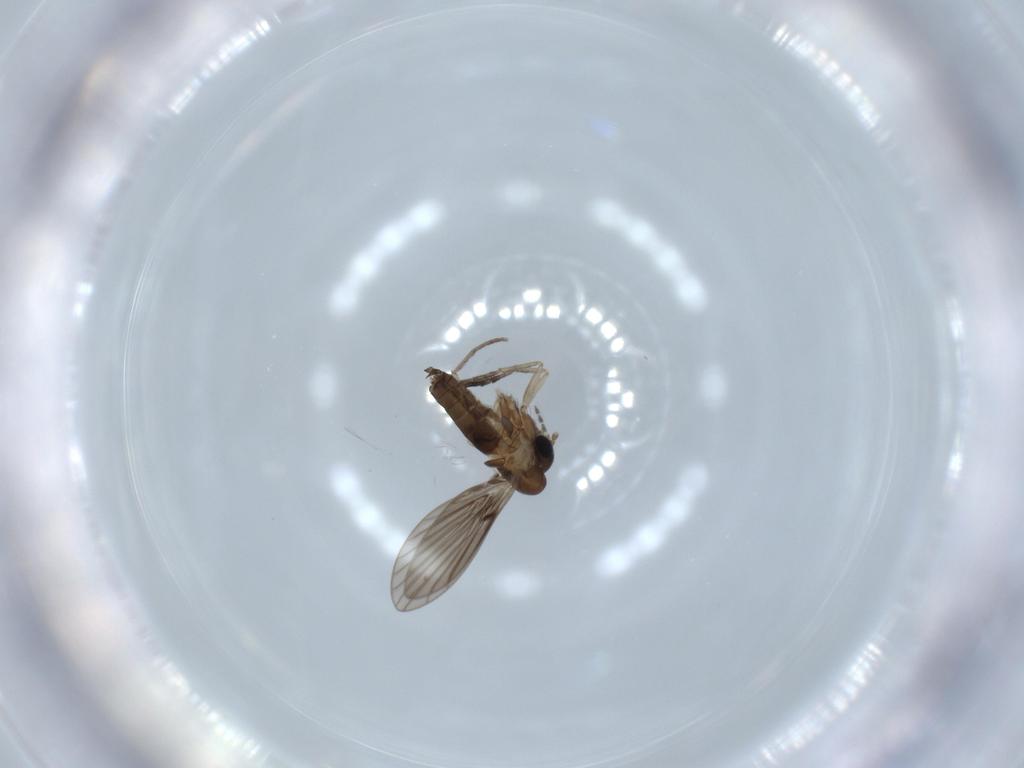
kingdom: Animalia
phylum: Arthropoda
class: Insecta
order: Diptera
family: Psychodidae
